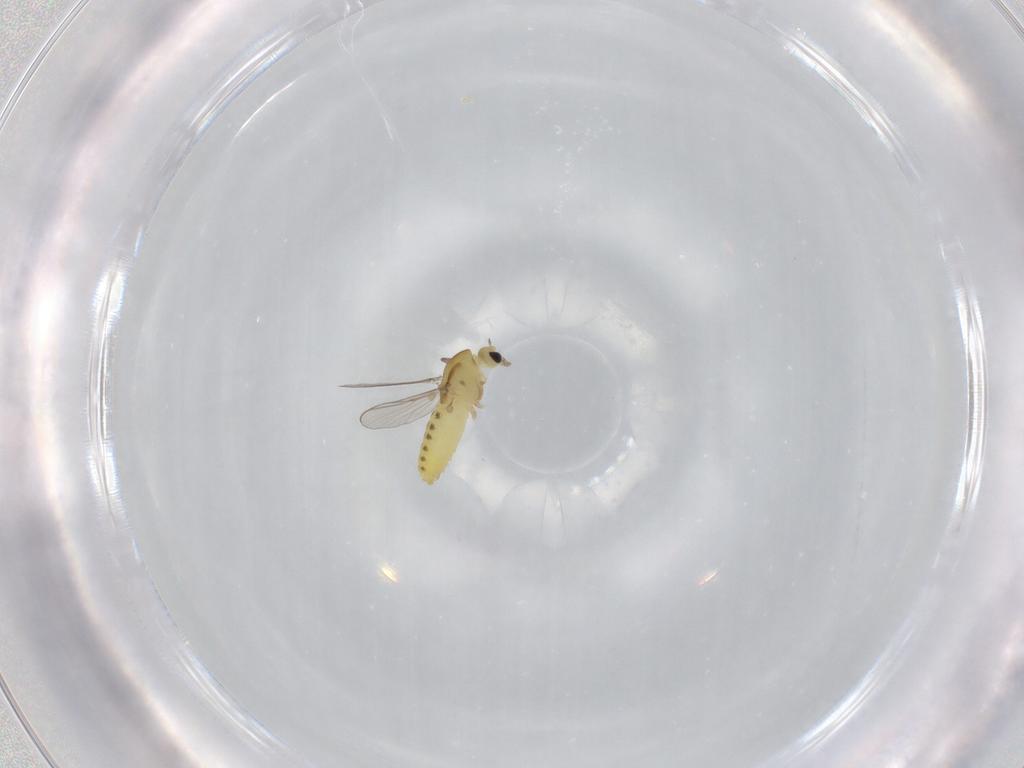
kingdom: Animalia
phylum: Arthropoda
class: Insecta
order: Diptera
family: Chironomidae
